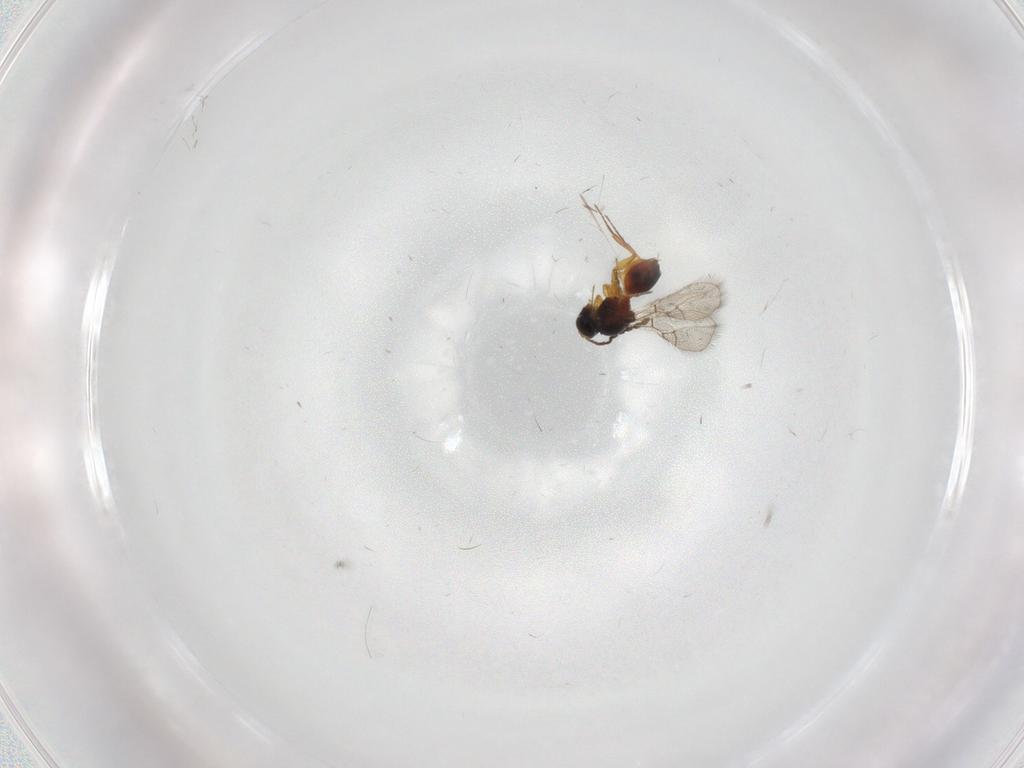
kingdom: Animalia
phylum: Arthropoda
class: Insecta
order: Hymenoptera
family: Figitidae
